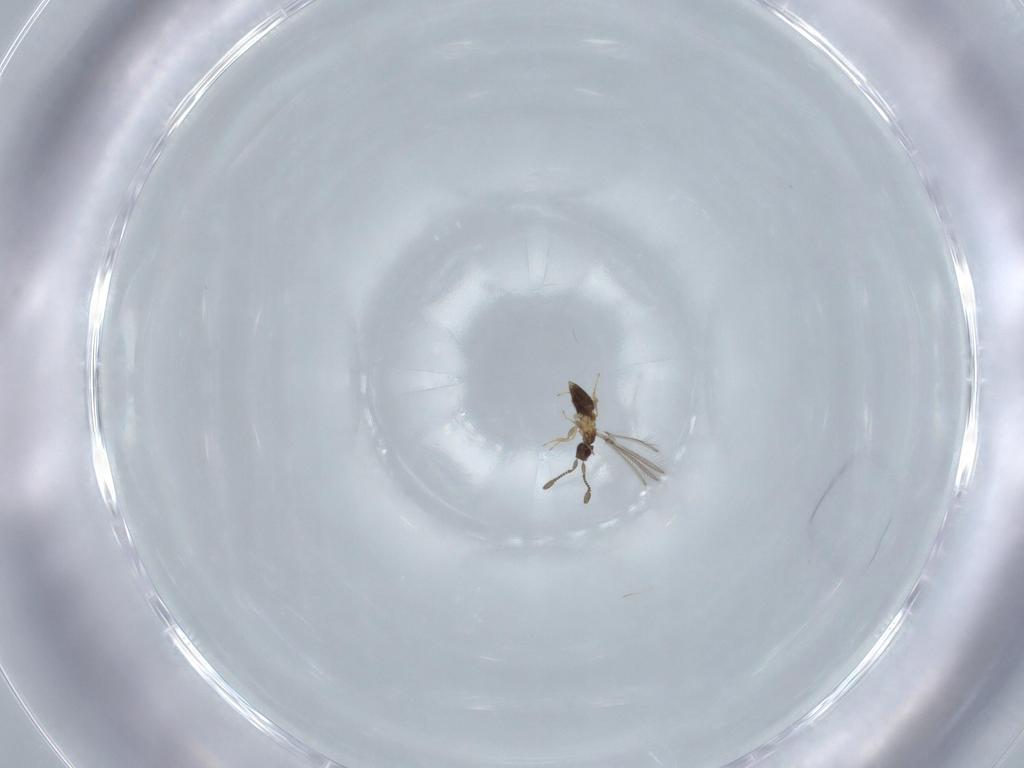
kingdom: Animalia
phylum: Arthropoda
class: Insecta
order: Hymenoptera
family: Mymaridae
